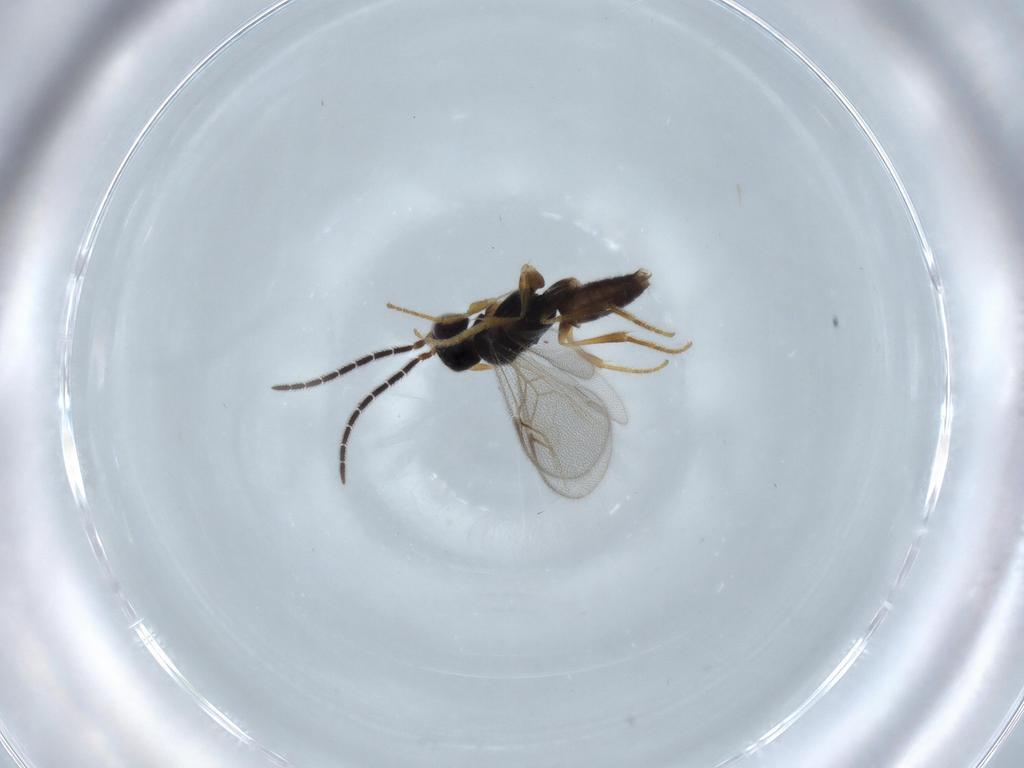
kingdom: Animalia
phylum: Arthropoda
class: Insecta
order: Hymenoptera
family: Dryinidae
